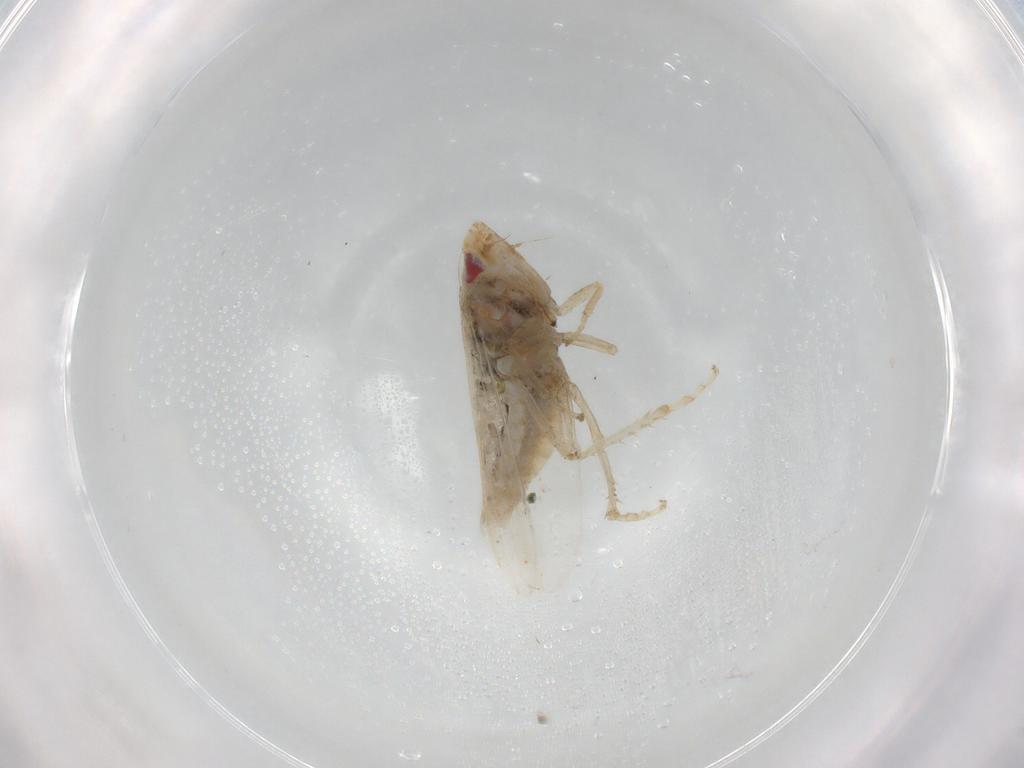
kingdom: Animalia
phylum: Arthropoda
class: Insecta
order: Hemiptera
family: Cicadellidae
